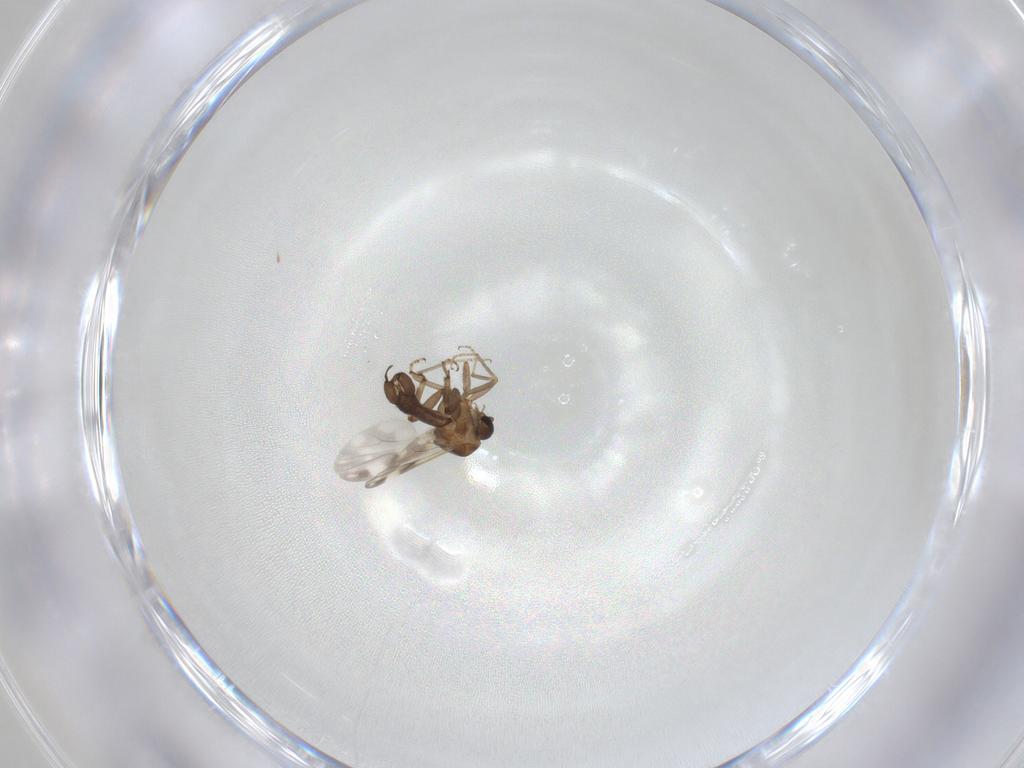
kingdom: Animalia
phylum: Arthropoda
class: Insecta
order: Diptera
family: Ceratopogonidae
